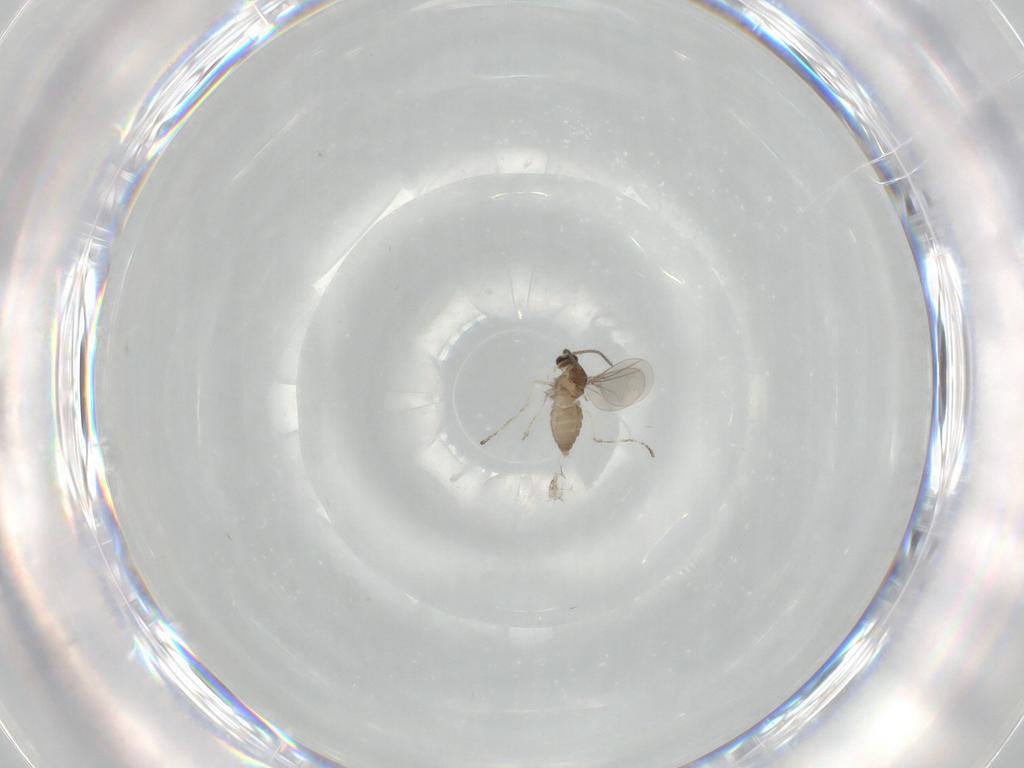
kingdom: Animalia
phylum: Arthropoda
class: Insecta
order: Diptera
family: Cecidomyiidae
